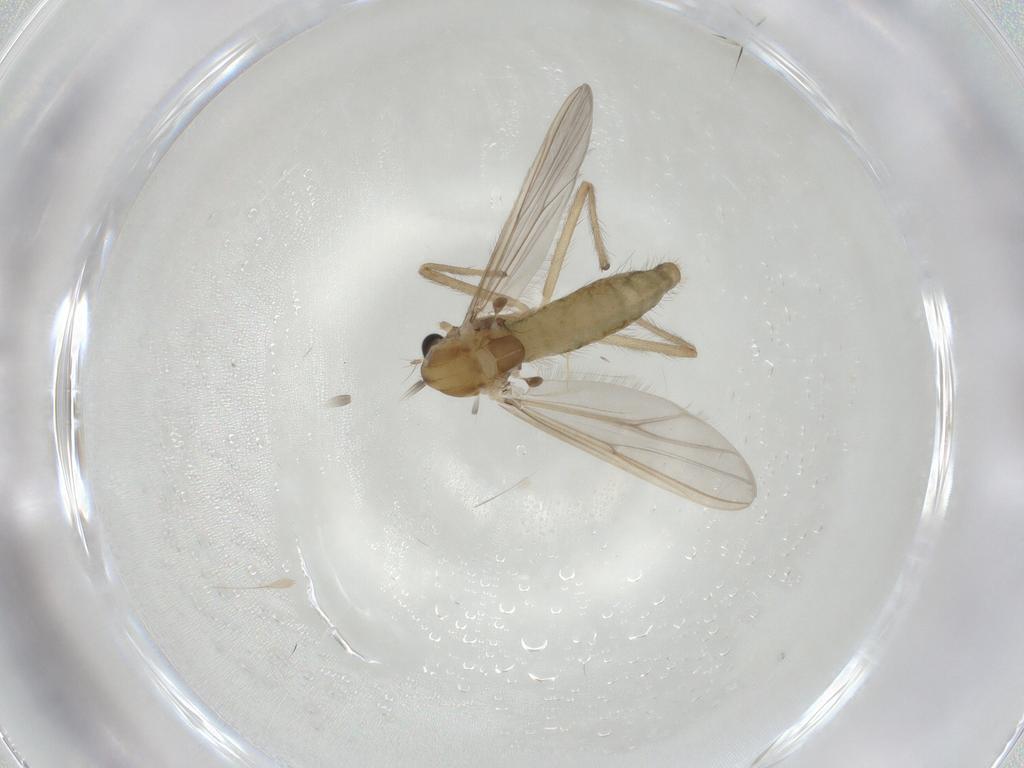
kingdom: Animalia
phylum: Arthropoda
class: Insecta
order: Diptera
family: Chironomidae
